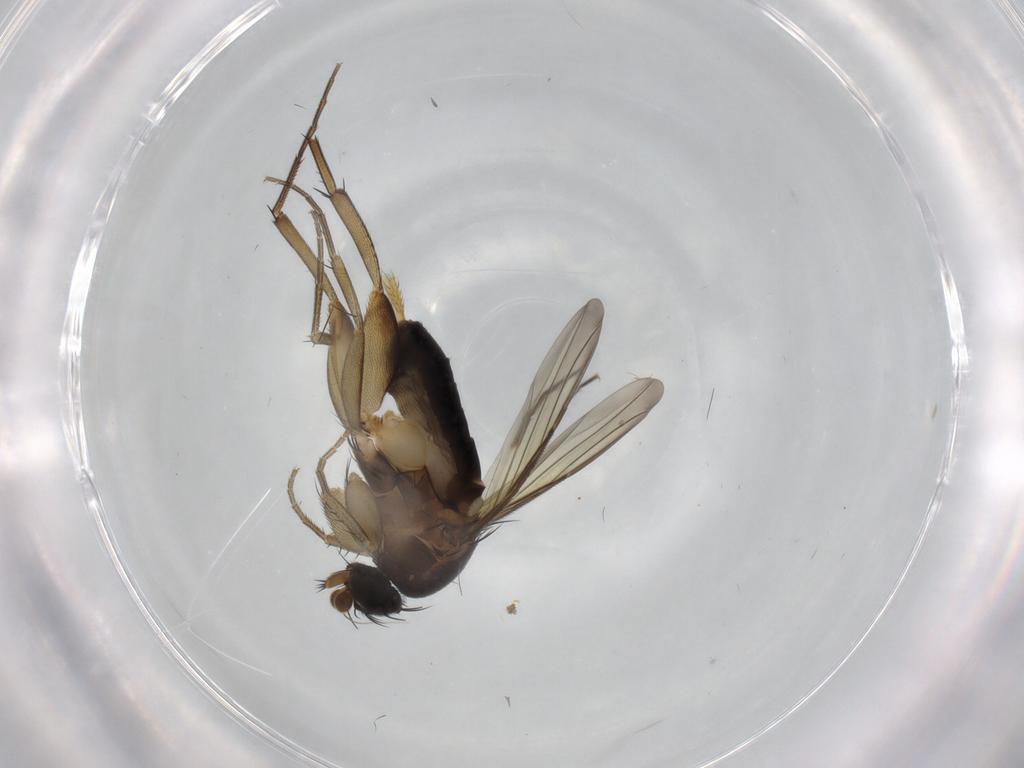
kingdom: Animalia
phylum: Arthropoda
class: Insecta
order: Diptera
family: Phoridae
